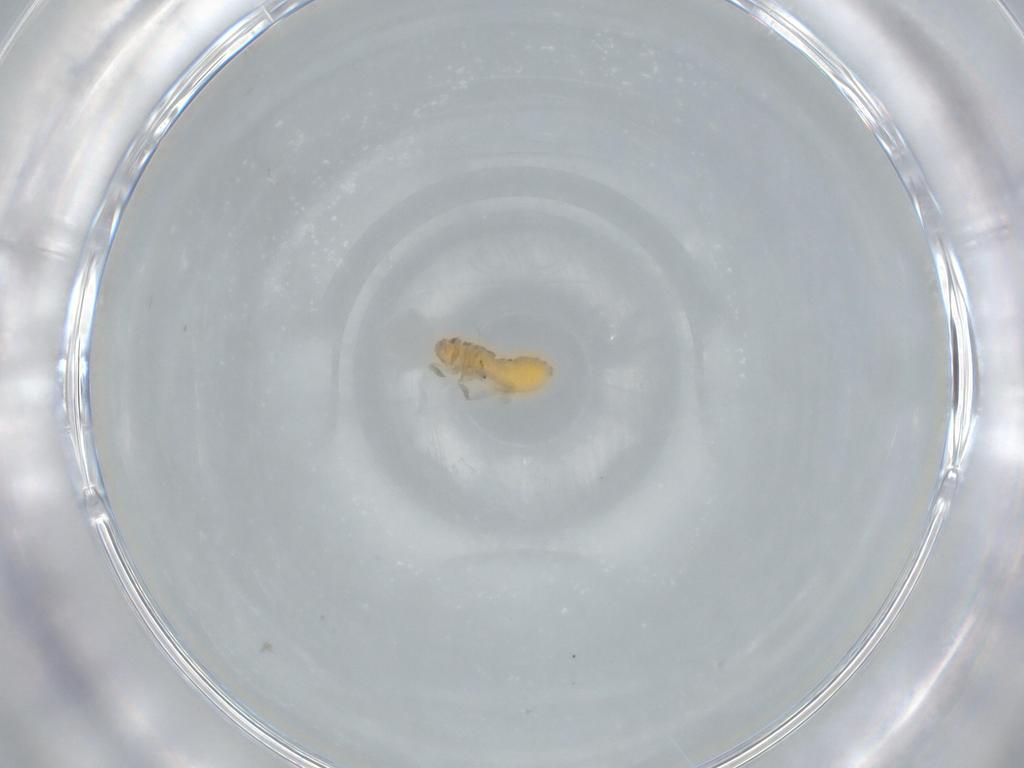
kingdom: Animalia
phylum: Arthropoda
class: Insecta
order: Hemiptera
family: Delphacidae
